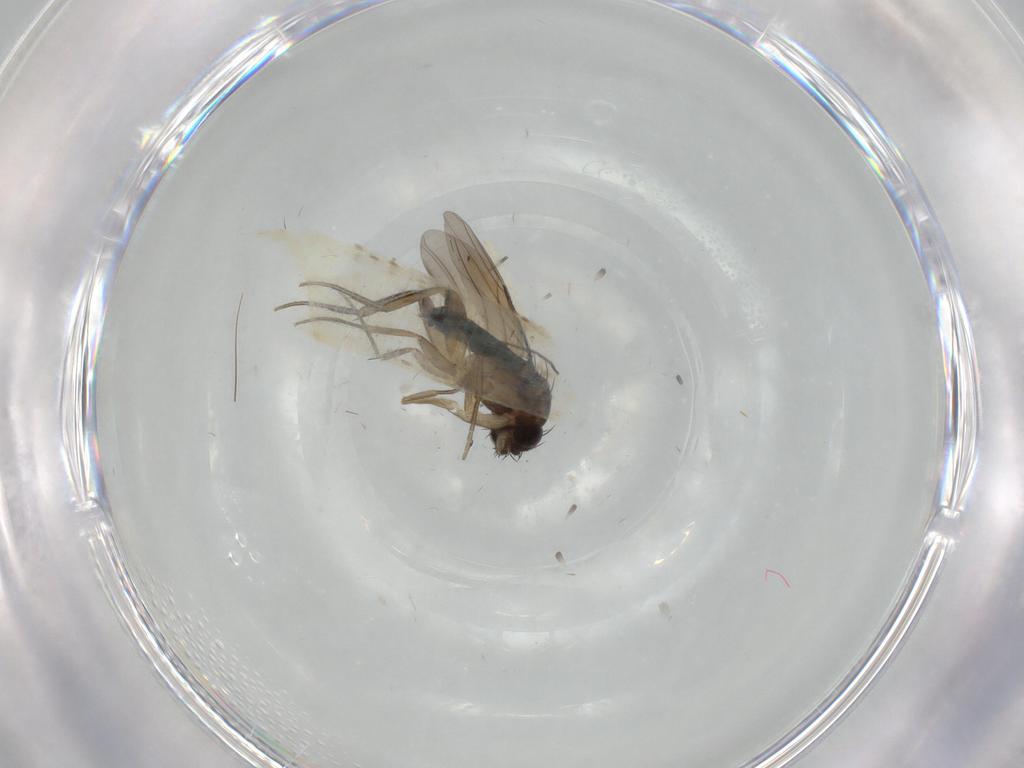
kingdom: Animalia
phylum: Arthropoda
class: Insecta
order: Diptera
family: Phoridae
